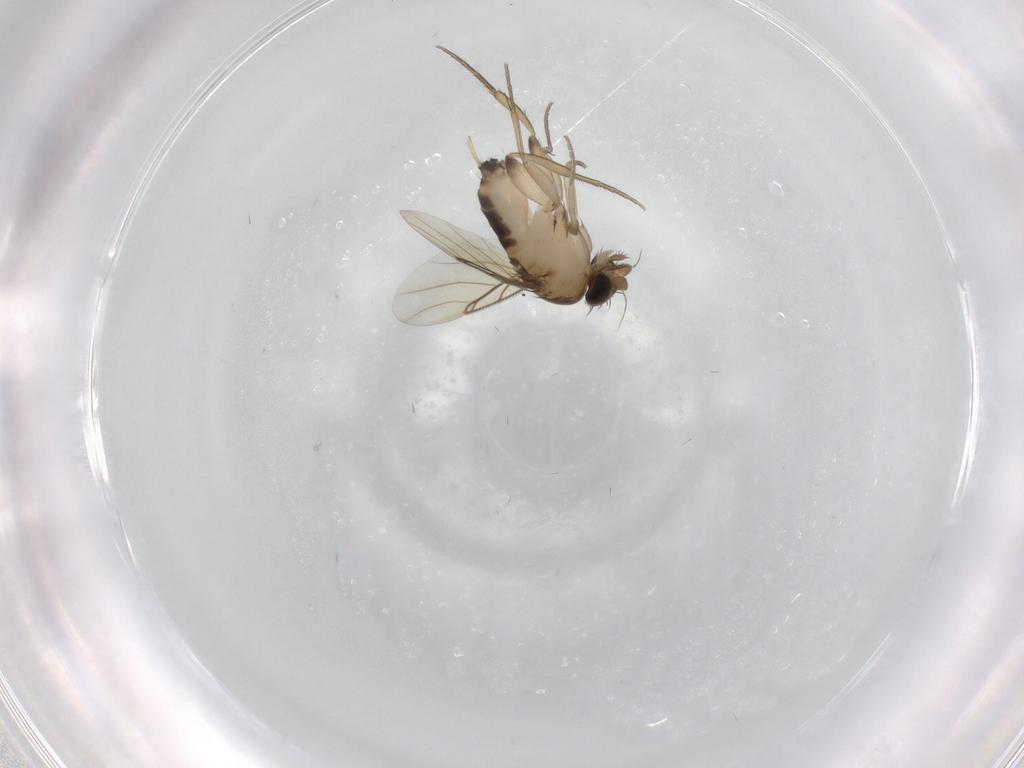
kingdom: Animalia
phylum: Arthropoda
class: Insecta
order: Diptera
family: Phoridae
